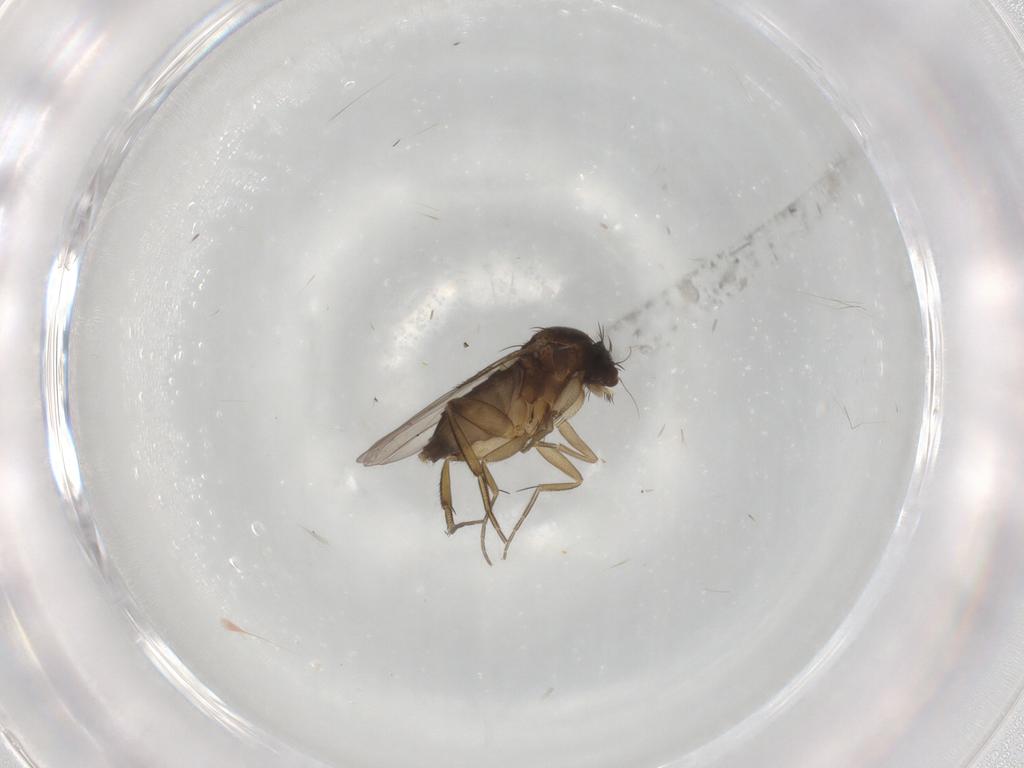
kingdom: Animalia
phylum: Arthropoda
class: Insecta
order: Diptera
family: Phoridae
